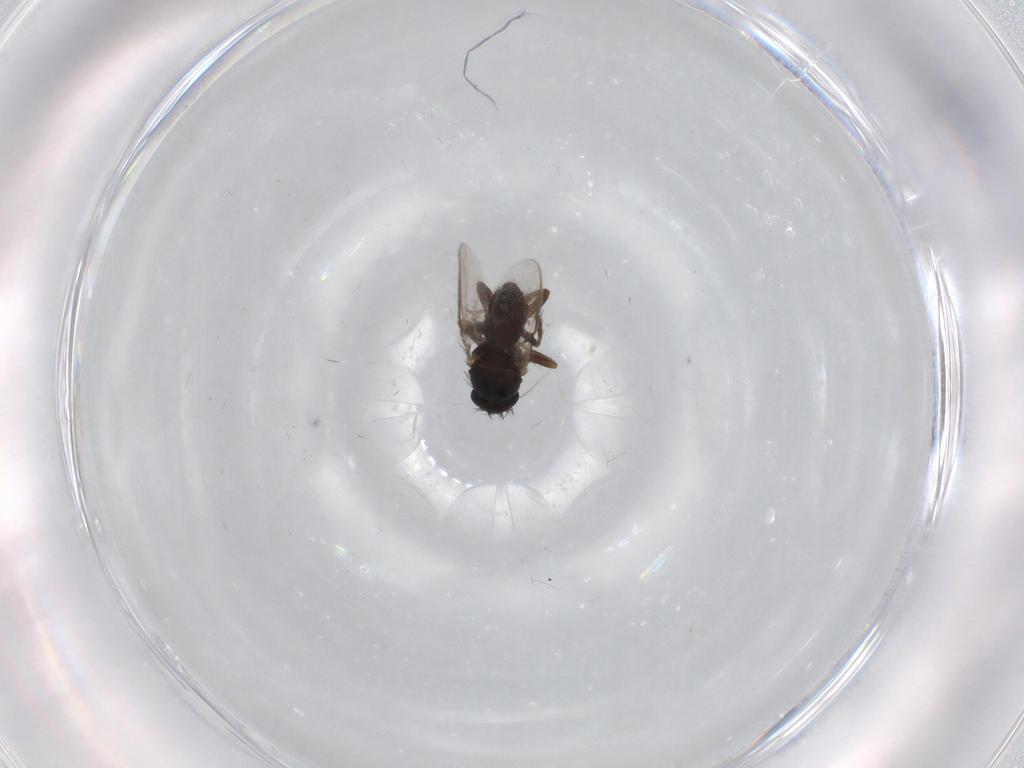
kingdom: Animalia
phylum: Arthropoda
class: Insecta
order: Diptera
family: Sphaeroceridae
